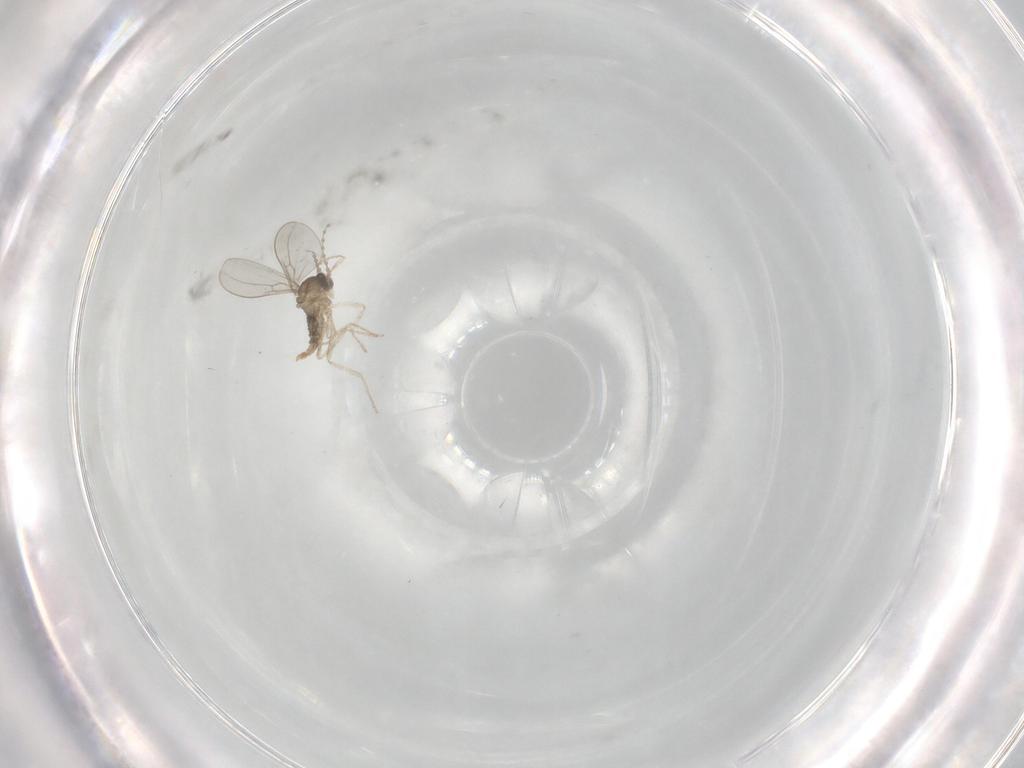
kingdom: Animalia
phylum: Arthropoda
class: Insecta
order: Diptera
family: Cecidomyiidae
